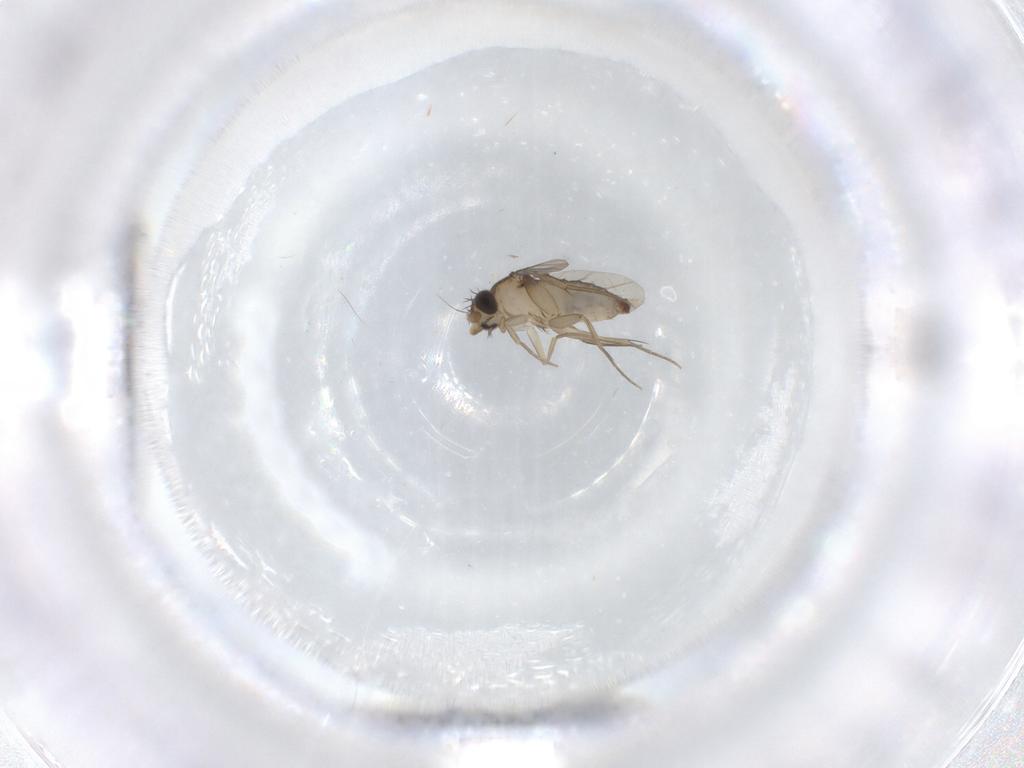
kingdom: Animalia
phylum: Arthropoda
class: Insecta
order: Diptera
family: Phoridae
